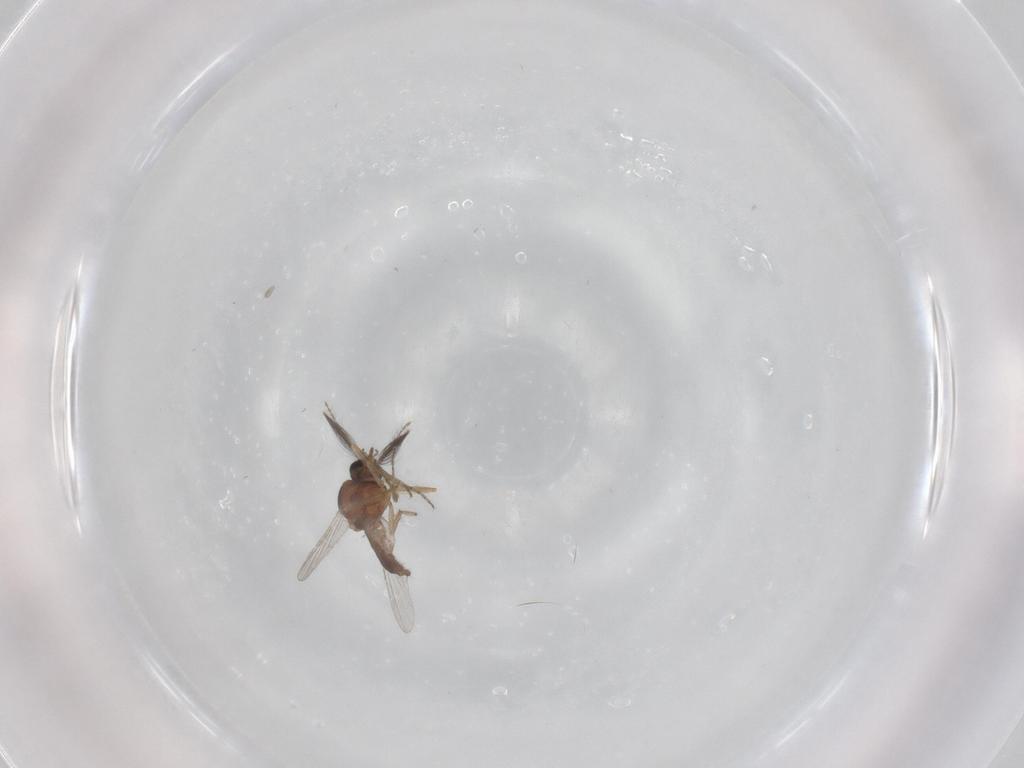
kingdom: Animalia
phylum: Arthropoda
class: Insecta
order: Diptera
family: Ceratopogonidae
